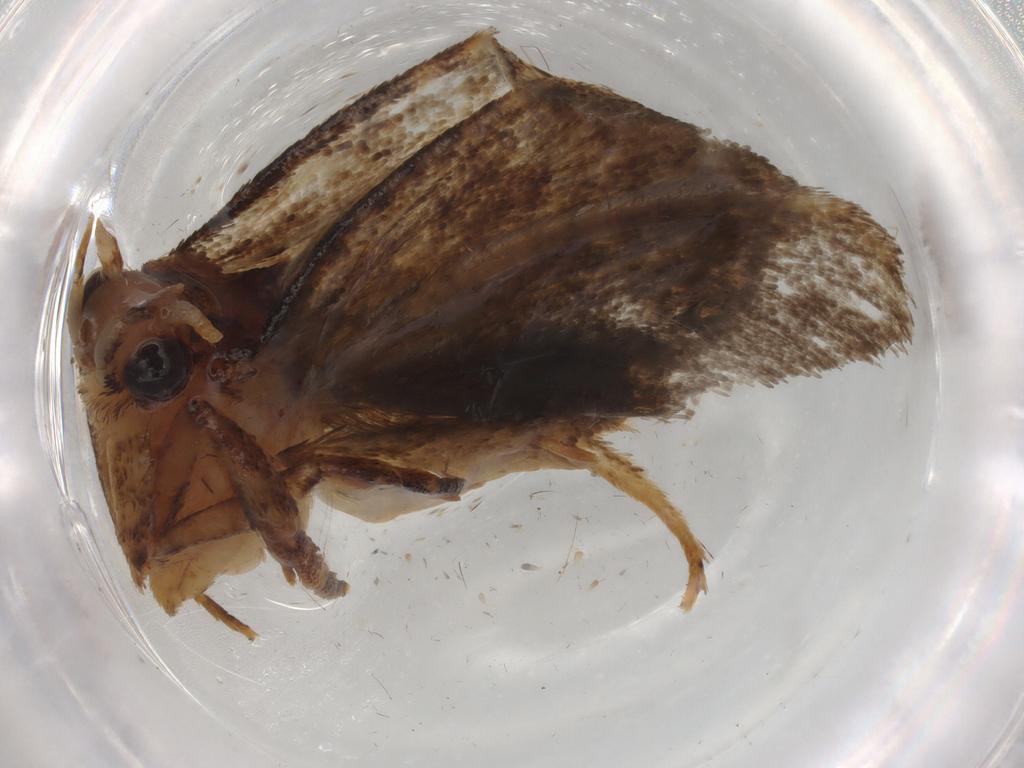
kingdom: Animalia
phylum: Arthropoda
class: Insecta
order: Lepidoptera
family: Tineidae
